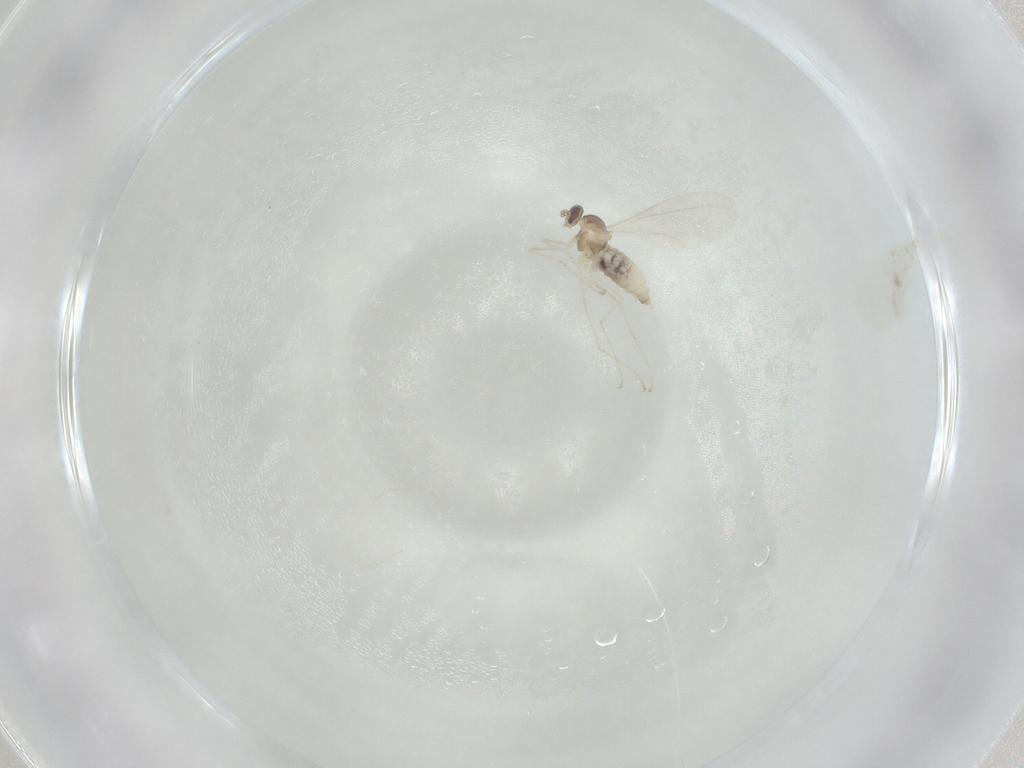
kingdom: Animalia
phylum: Arthropoda
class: Insecta
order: Diptera
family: Cecidomyiidae
